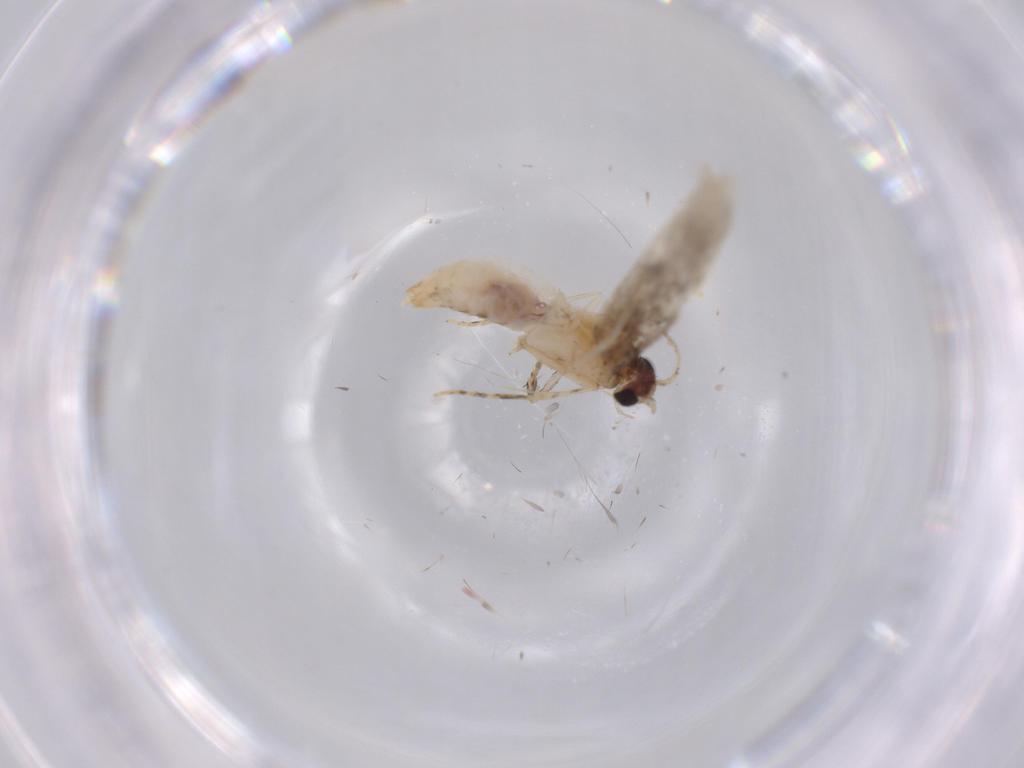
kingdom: Animalia
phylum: Arthropoda
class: Insecta
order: Lepidoptera
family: Tineidae
